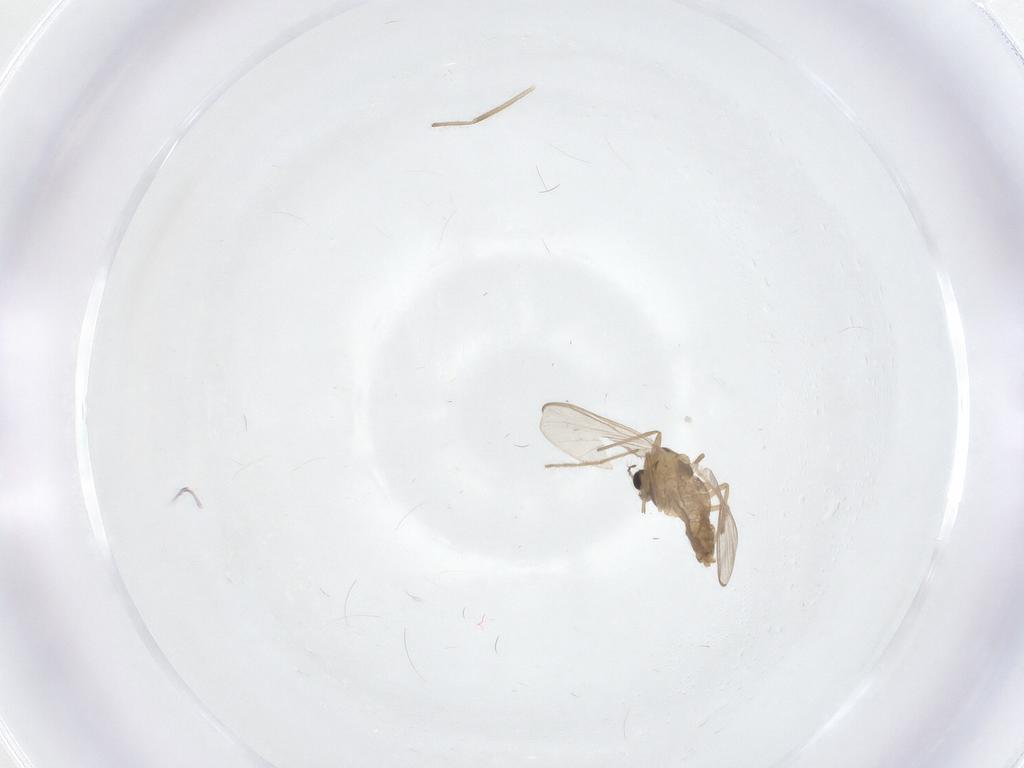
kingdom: Animalia
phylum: Arthropoda
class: Insecta
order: Diptera
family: Chironomidae
